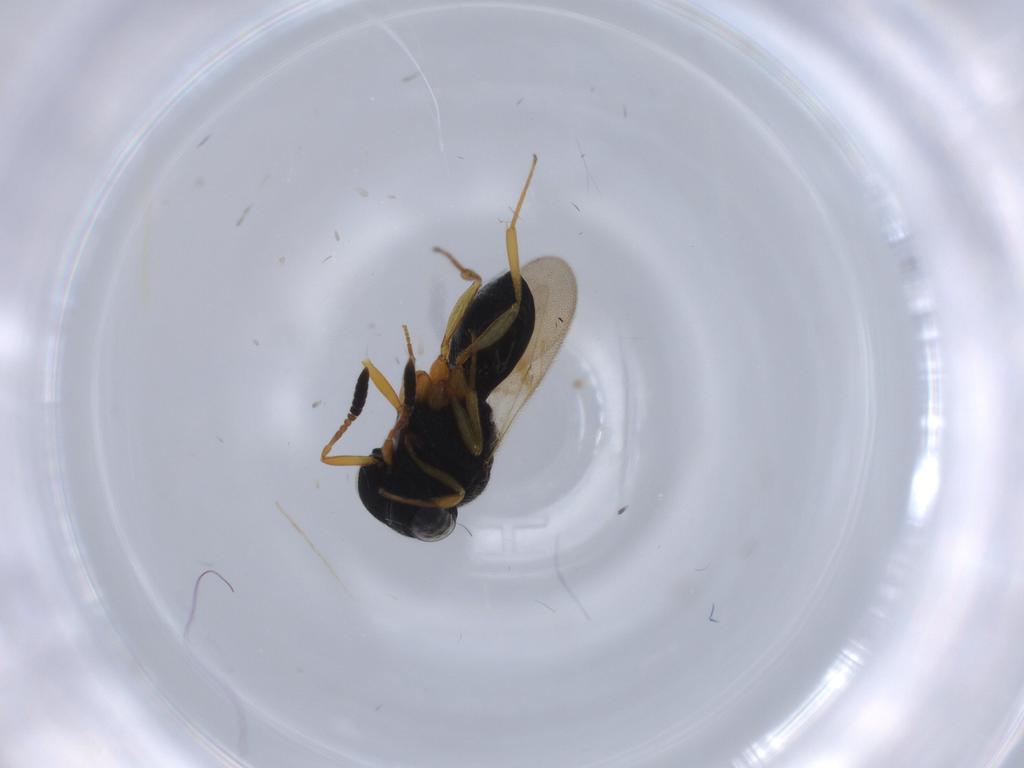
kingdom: Animalia
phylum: Arthropoda
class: Insecta
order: Hymenoptera
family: Scelionidae
